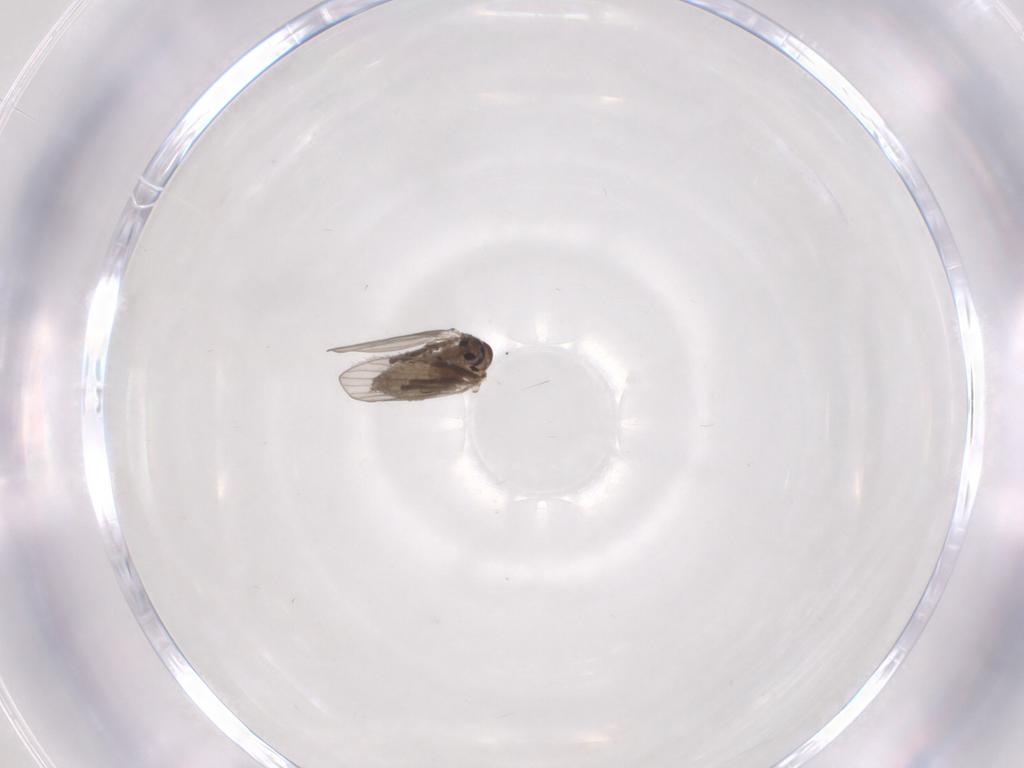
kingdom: Animalia
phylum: Arthropoda
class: Insecta
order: Diptera
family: Psychodidae
